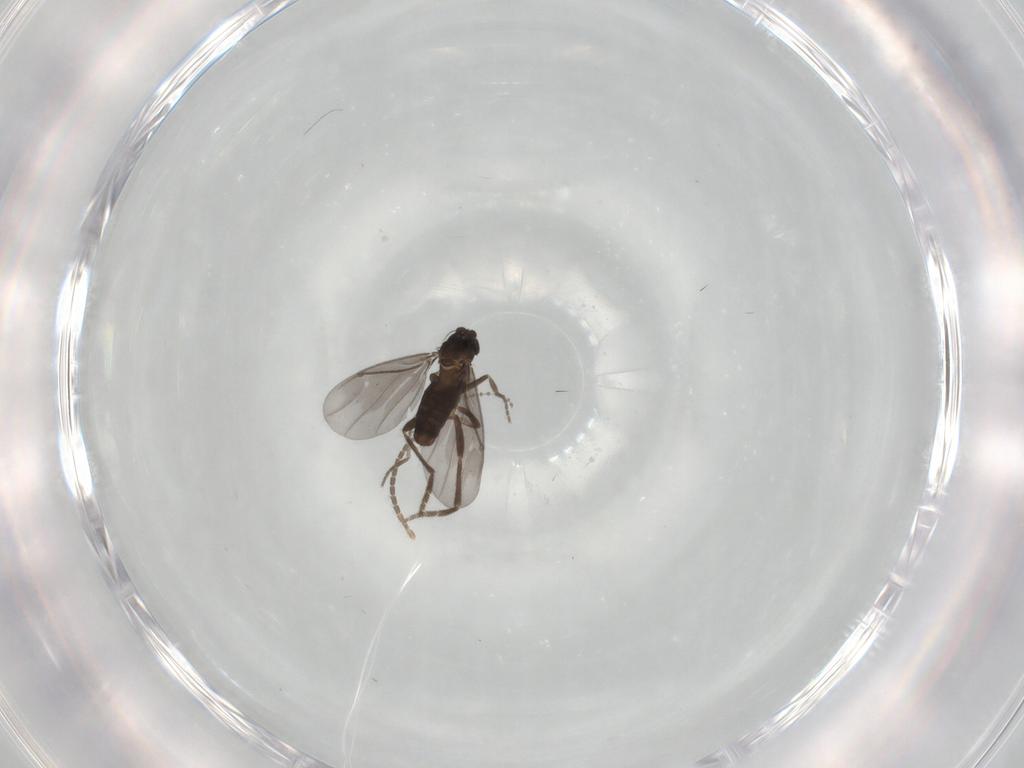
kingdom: Animalia
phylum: Arthropoda
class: Insecta
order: Diptera
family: Phoridae
